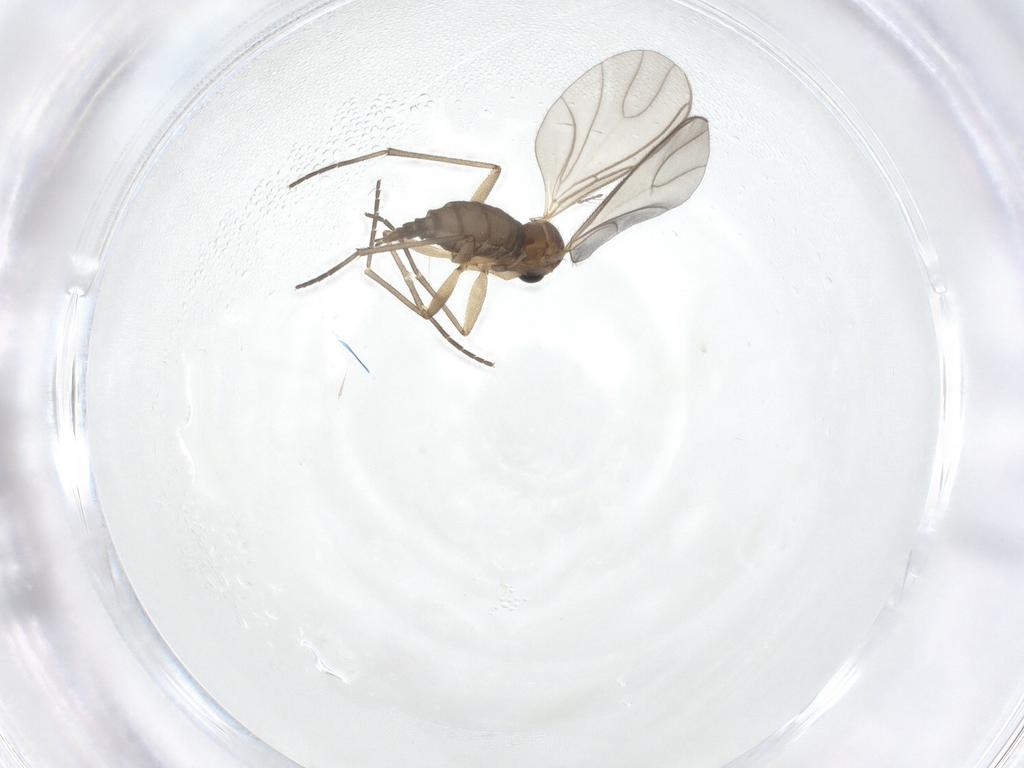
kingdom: Animalia
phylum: Arthropoda
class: Insecta
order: Diptera
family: Sciaridae
